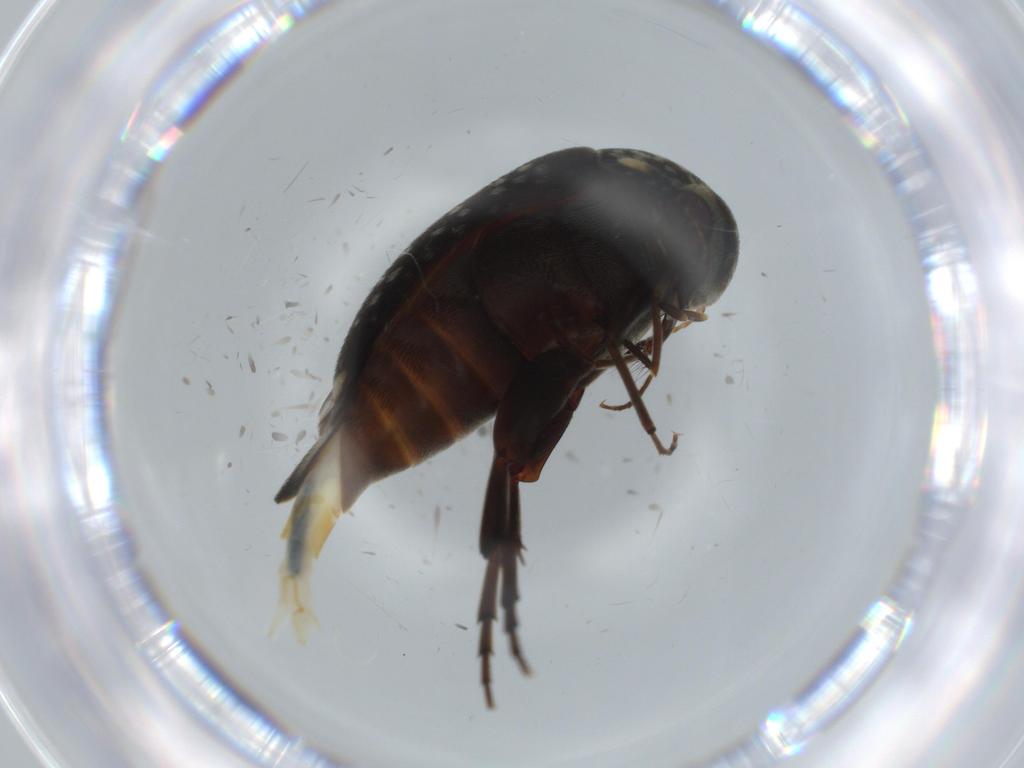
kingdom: Animalia
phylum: Arthropoda
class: Insecta
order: Coleoptera
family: Mordellidae
